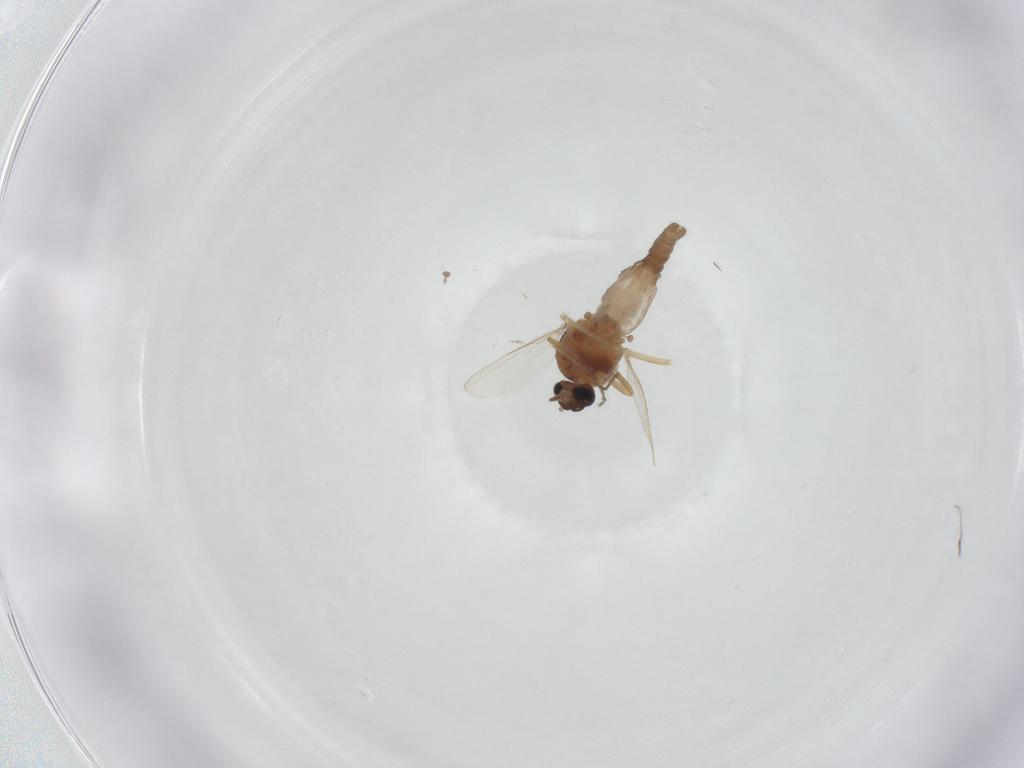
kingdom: Animalia
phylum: Arthropoda
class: Insecta
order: Diptera
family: Ceratopogonidae
